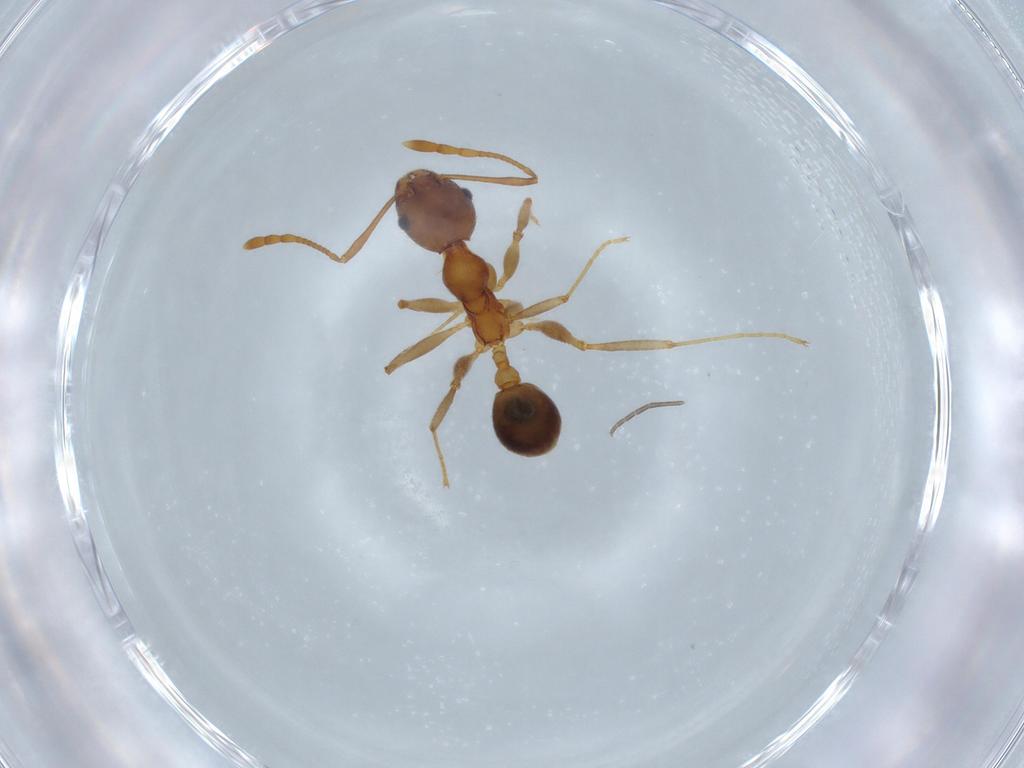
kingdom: Animalia
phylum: Arthropoda
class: Insecta
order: Hymenoptera
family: Formicidae
